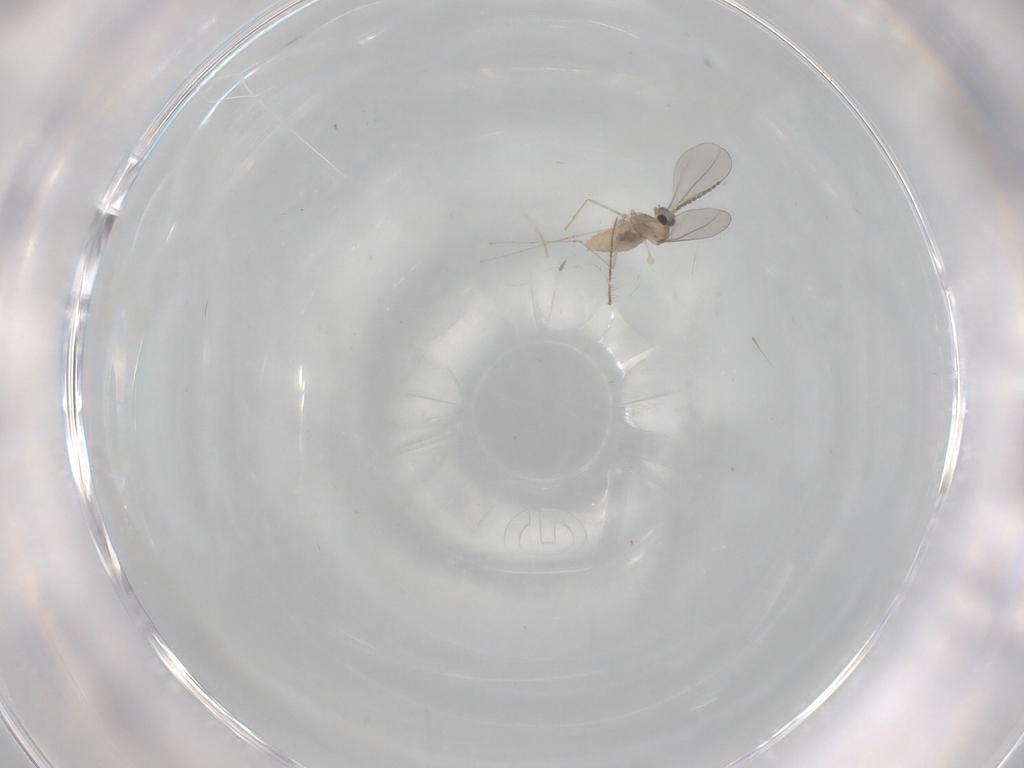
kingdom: Animalia
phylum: Arthropoda
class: Insecta
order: Diptera
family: Ceratopogonidae
